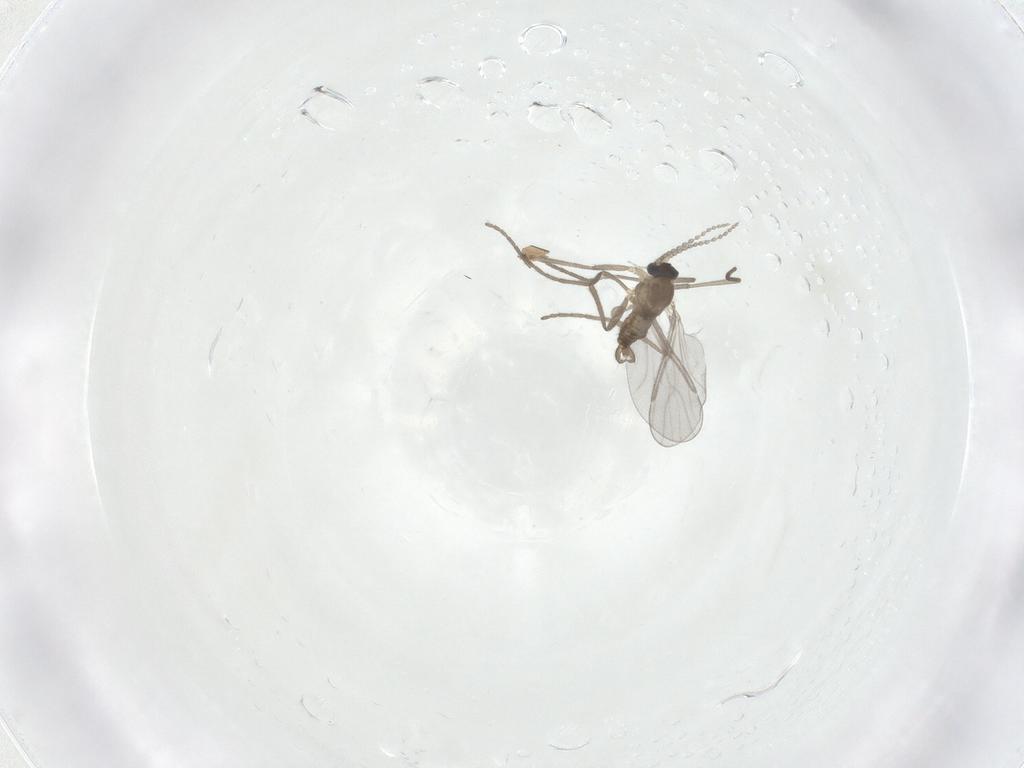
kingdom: Animalia
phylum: Arthropoda
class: Insecta
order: Diptera
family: Cecidomyiidae
